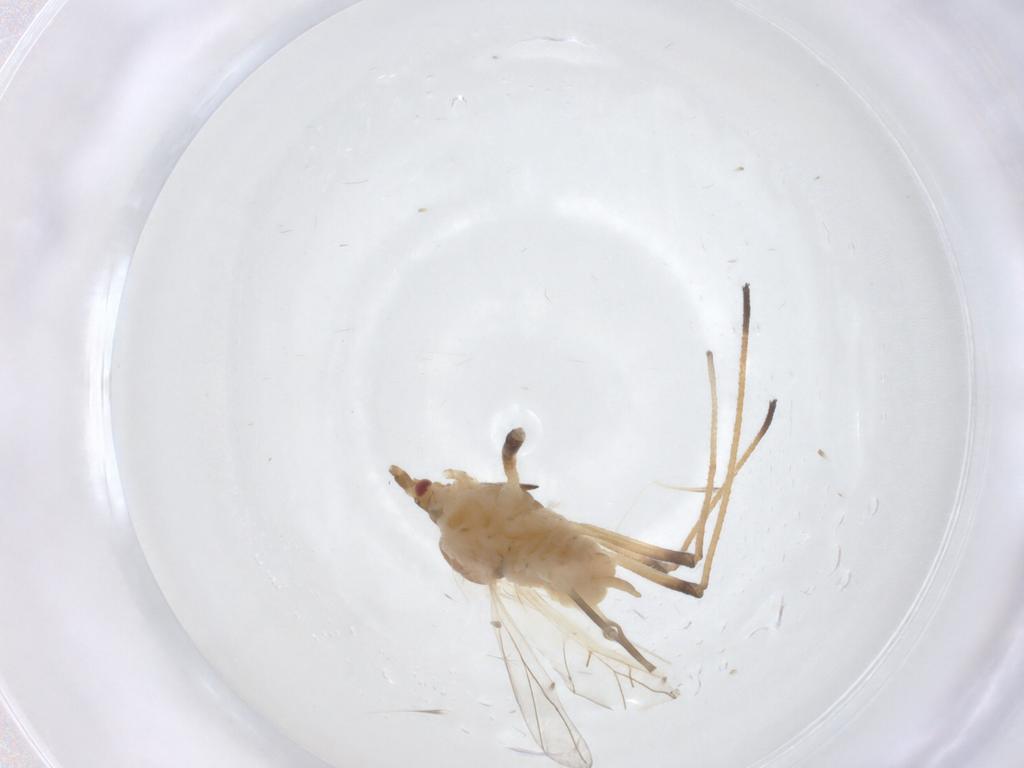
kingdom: Animalia
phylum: Arthropoda
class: Insecta
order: Hemiptera
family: Aphididae
